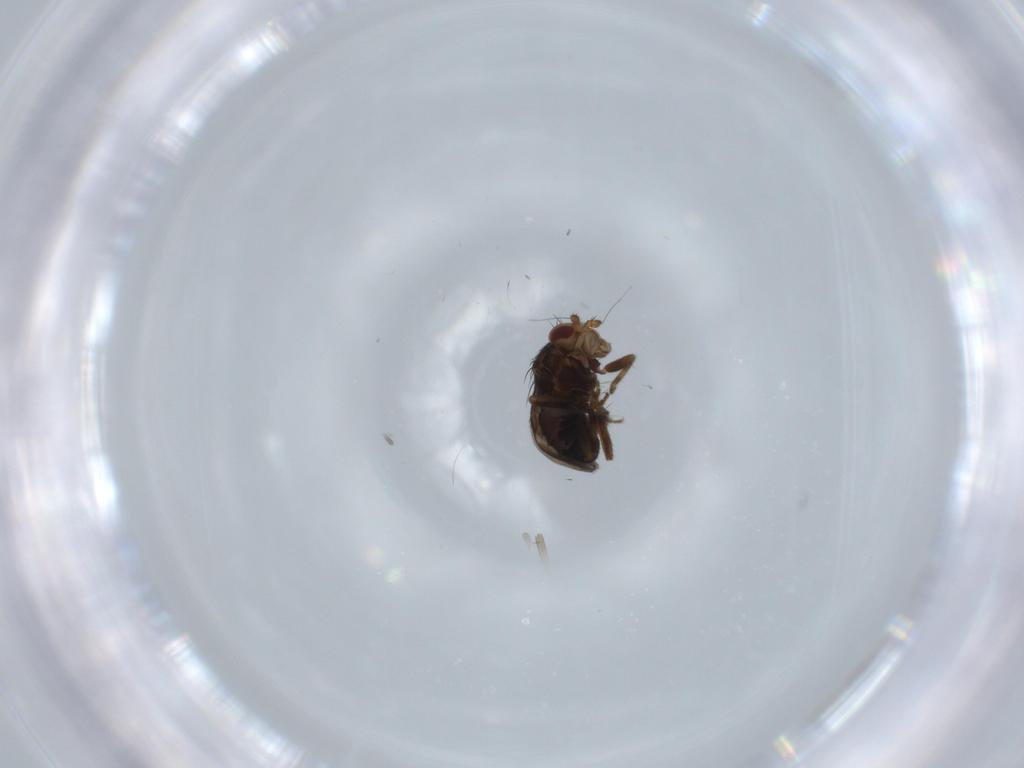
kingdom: Animalia
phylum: Arthropoda
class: Insecta
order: Diptera
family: Sphaeroceridae
